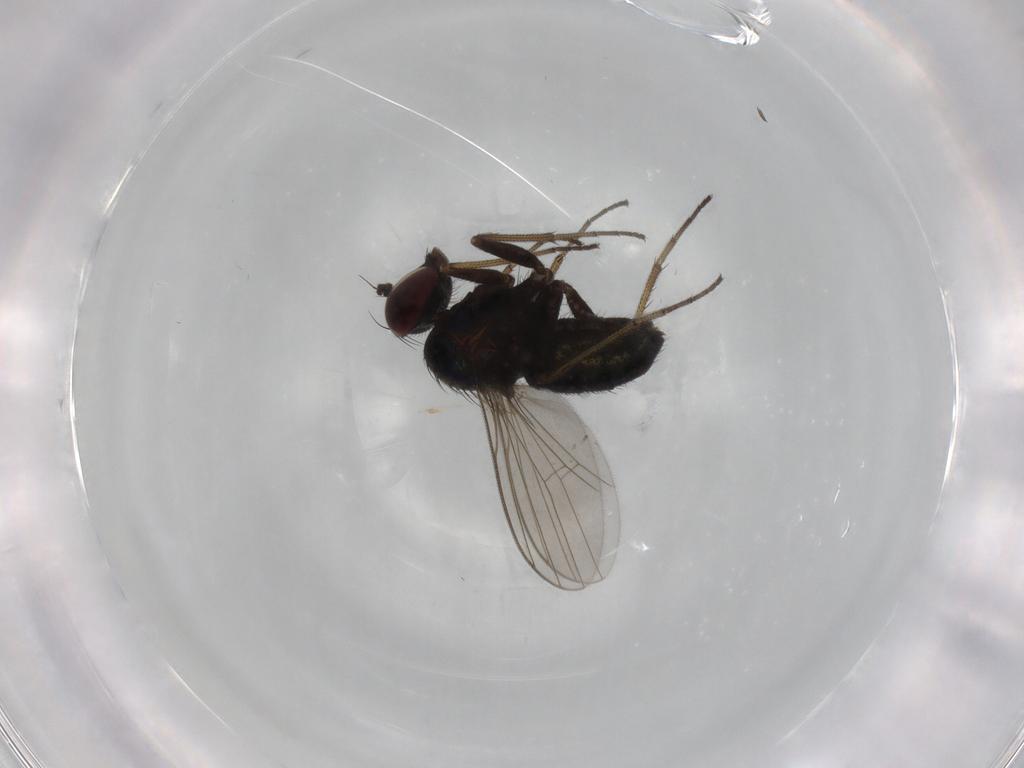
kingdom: Animalia
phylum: Arthropoda
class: Insecta
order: Diptera
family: Dolichopodidae
